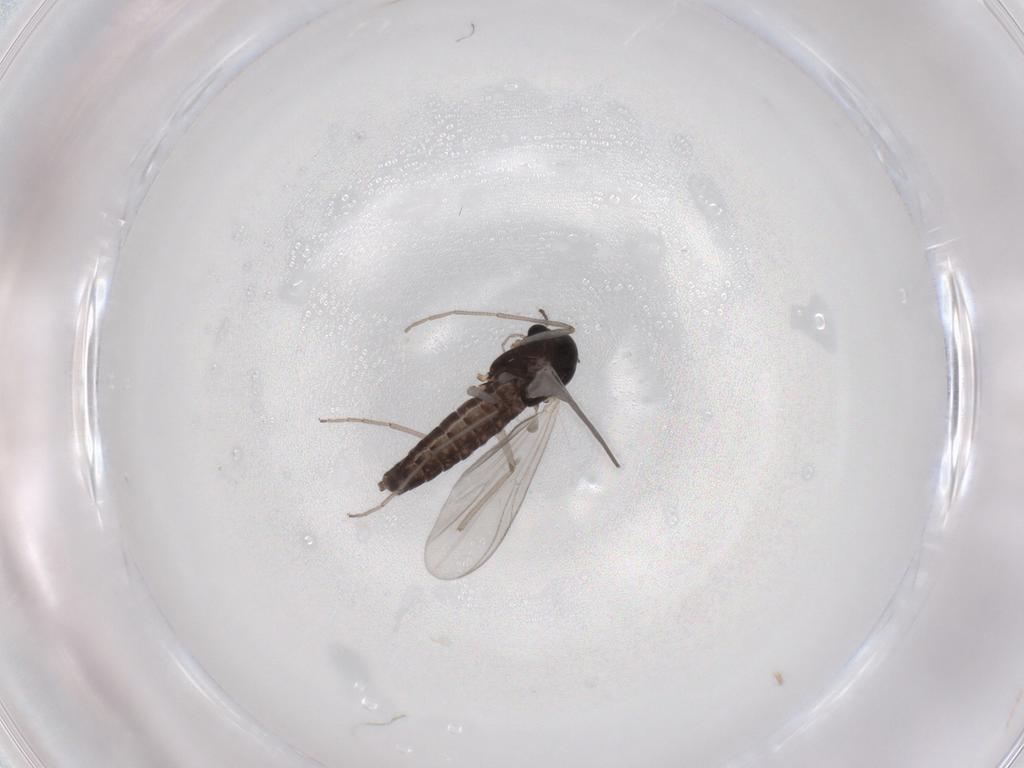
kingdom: Animalia
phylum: Arthropoda
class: Insecta
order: Diptera
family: Chironomidae
